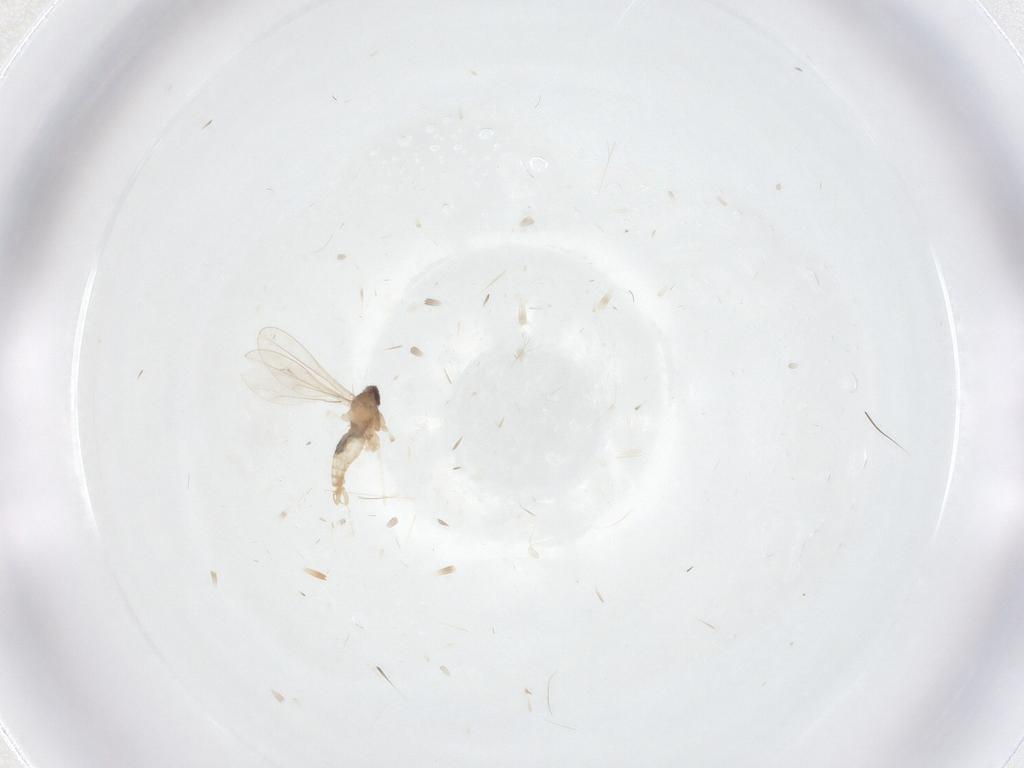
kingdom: Animalia
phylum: Arthropoda
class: Insecta
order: Diptera
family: Cecidomyiidae
